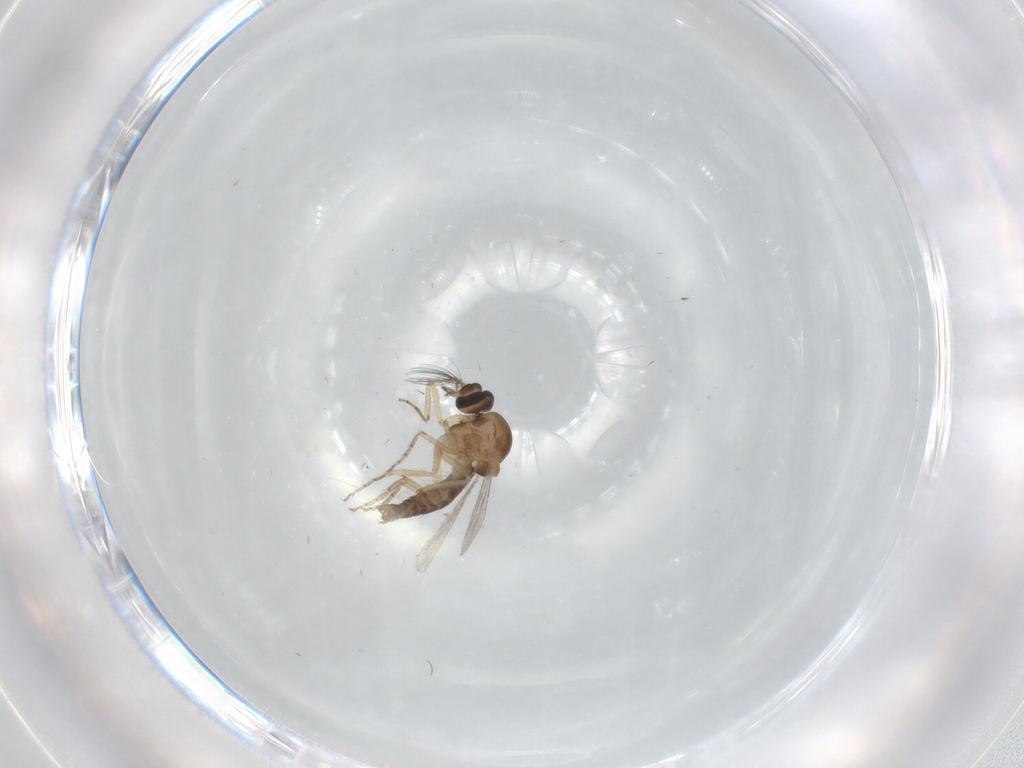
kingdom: Animalia
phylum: Arthropoda
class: Insecta
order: Diptera
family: Ceratopogonidae
